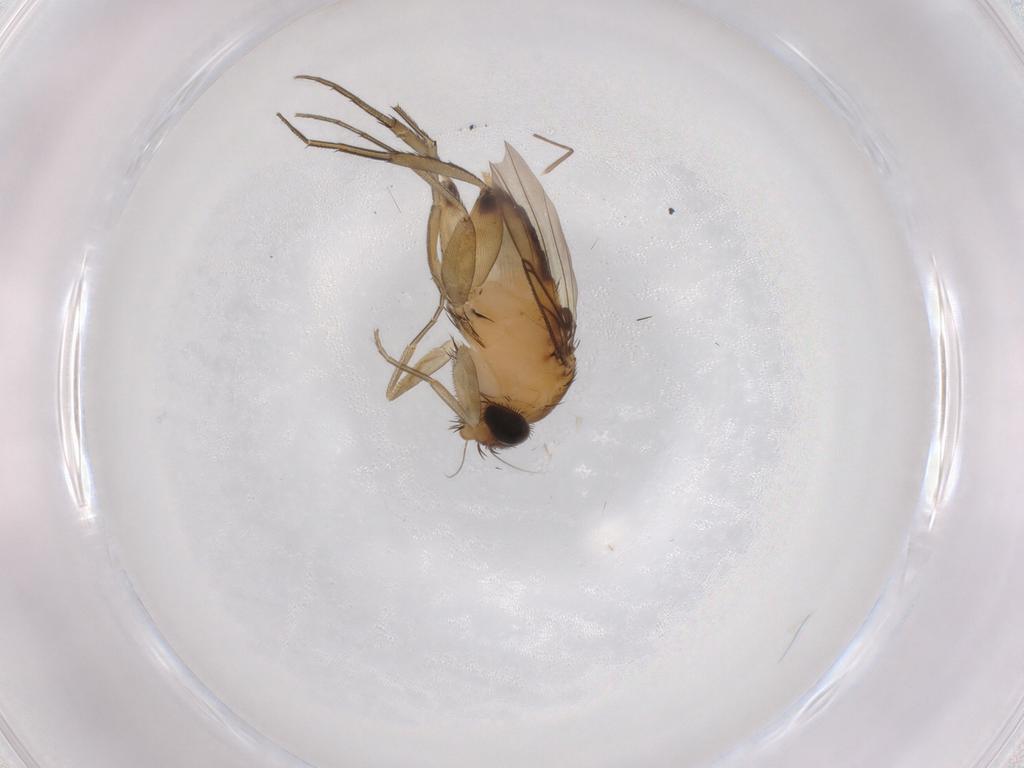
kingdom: Animalia
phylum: Arthropoda
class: Insecta
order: Diptera
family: Phoridae
